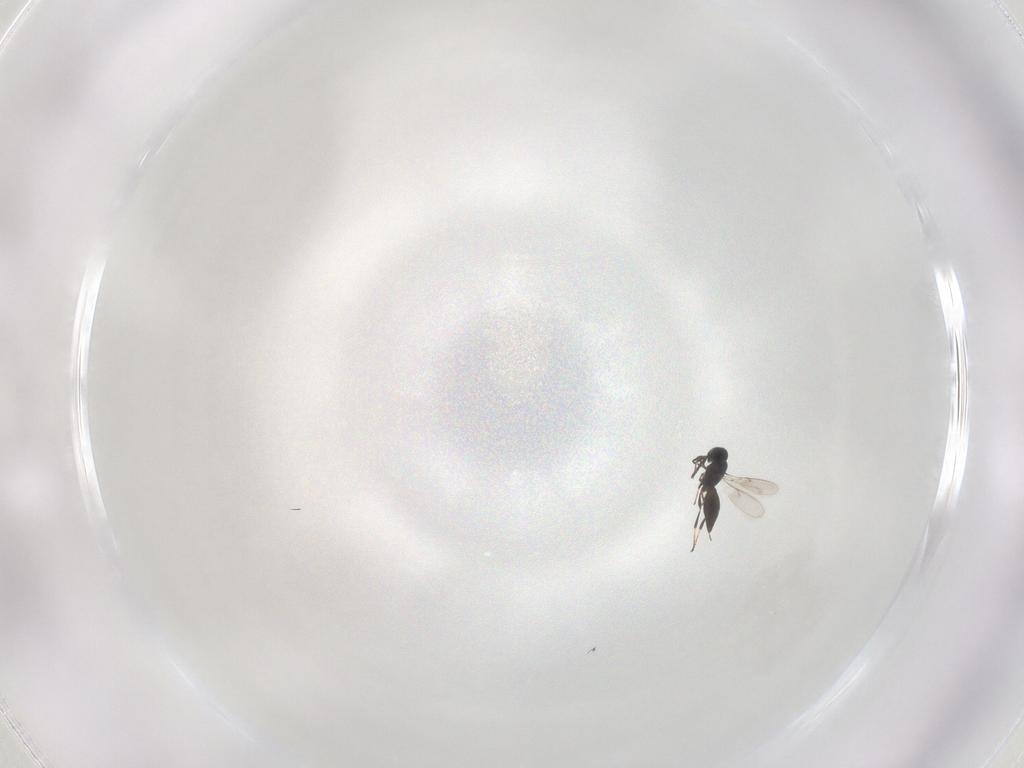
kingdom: Animalia
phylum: Arthropoda
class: Insecta
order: Hymenoptera
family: Scelionidae
